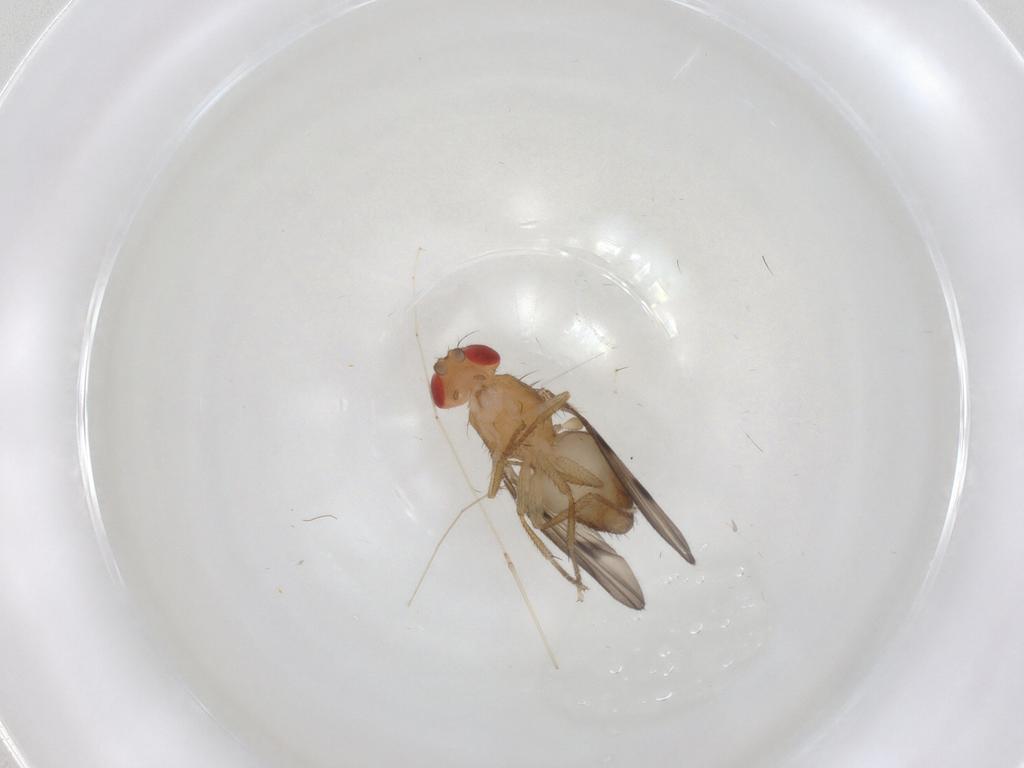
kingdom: Animalia
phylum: Arthropoda
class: Insecta
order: Diptera
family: Drosophilidae
